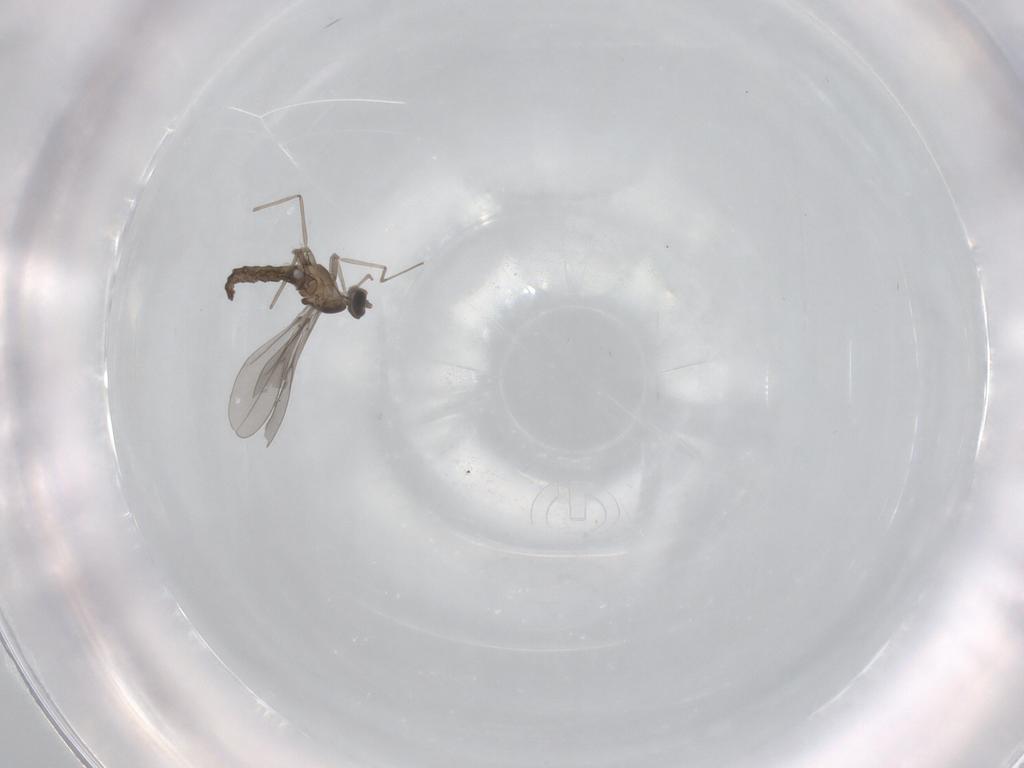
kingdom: Animalia
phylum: Arthropoda
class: Insecta
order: Diptera
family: Cecidomyiidae
